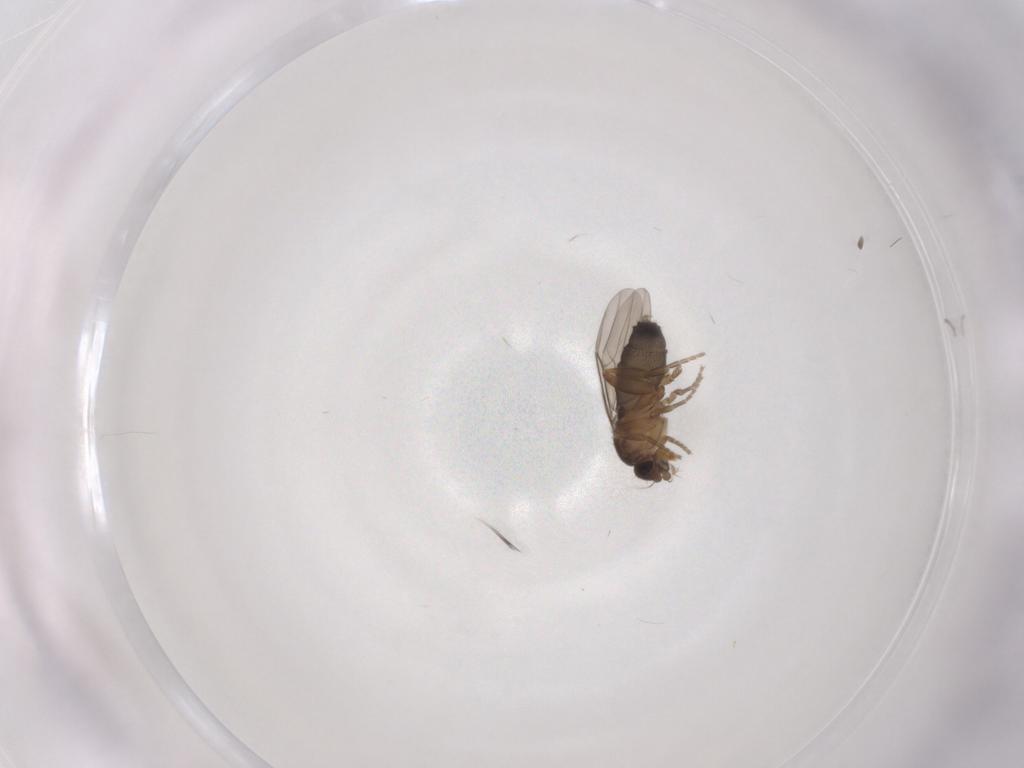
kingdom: Animalia
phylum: Arthropoda
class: Insecta
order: Diptera
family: Phoridae
